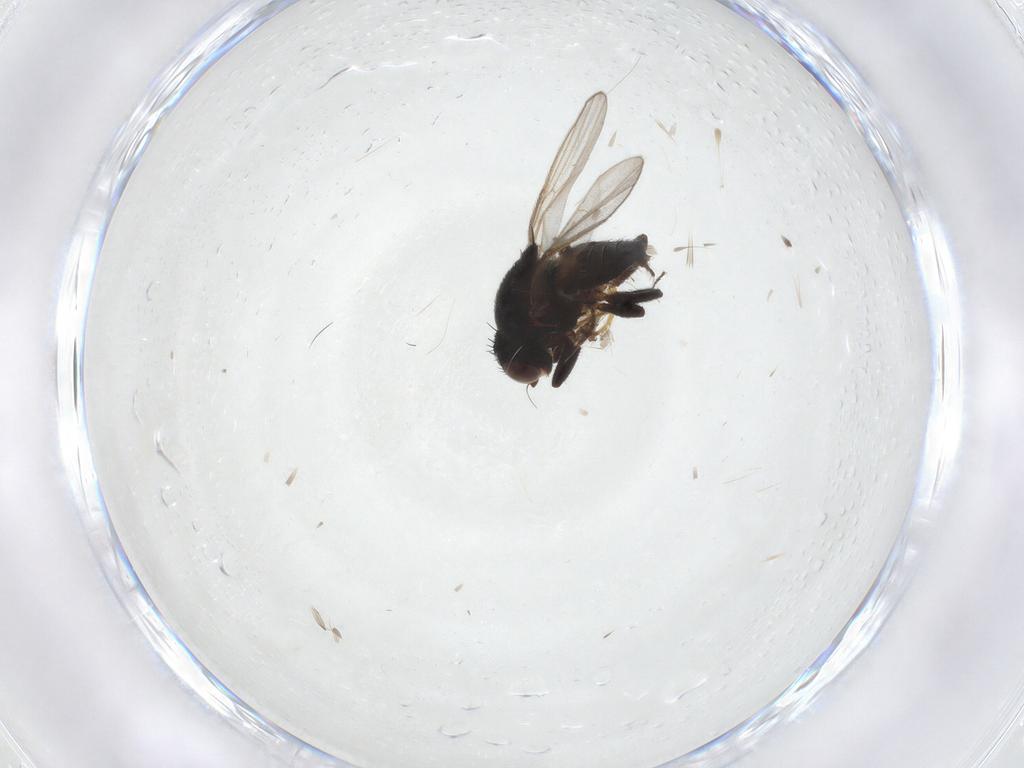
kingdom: Animalia
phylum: Arthropoda
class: Insecta
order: Diptera
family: Chloropidae
